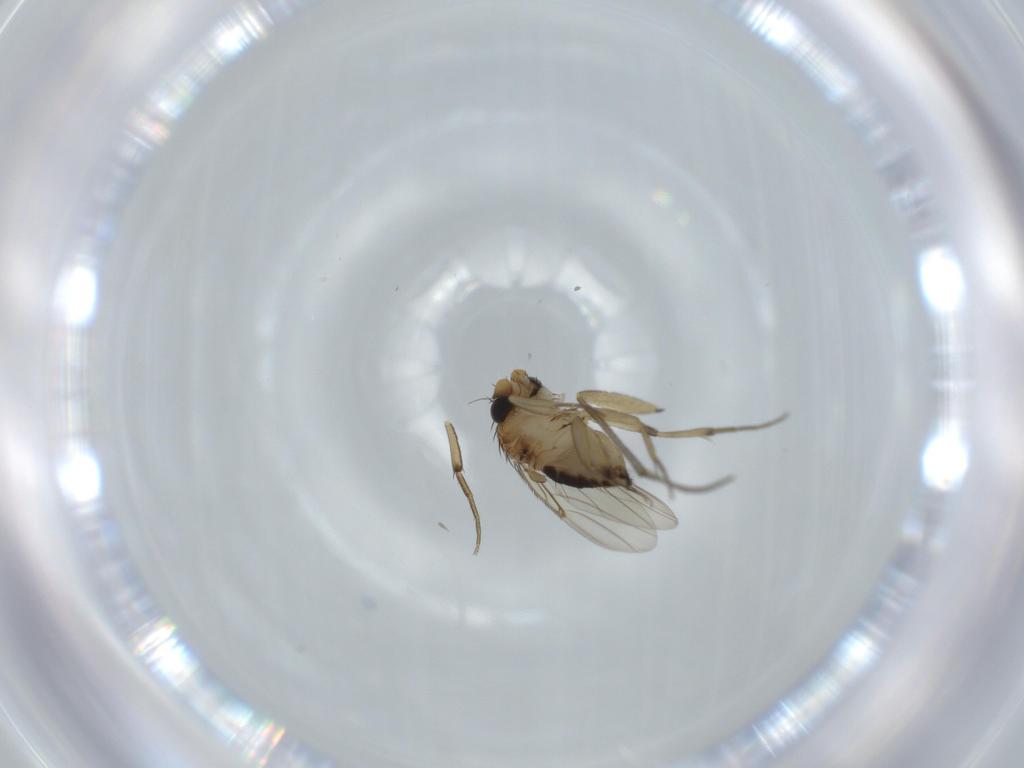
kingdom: Animalia
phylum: Arthropoda
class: Insecta
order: Diptera
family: Sciaridae
